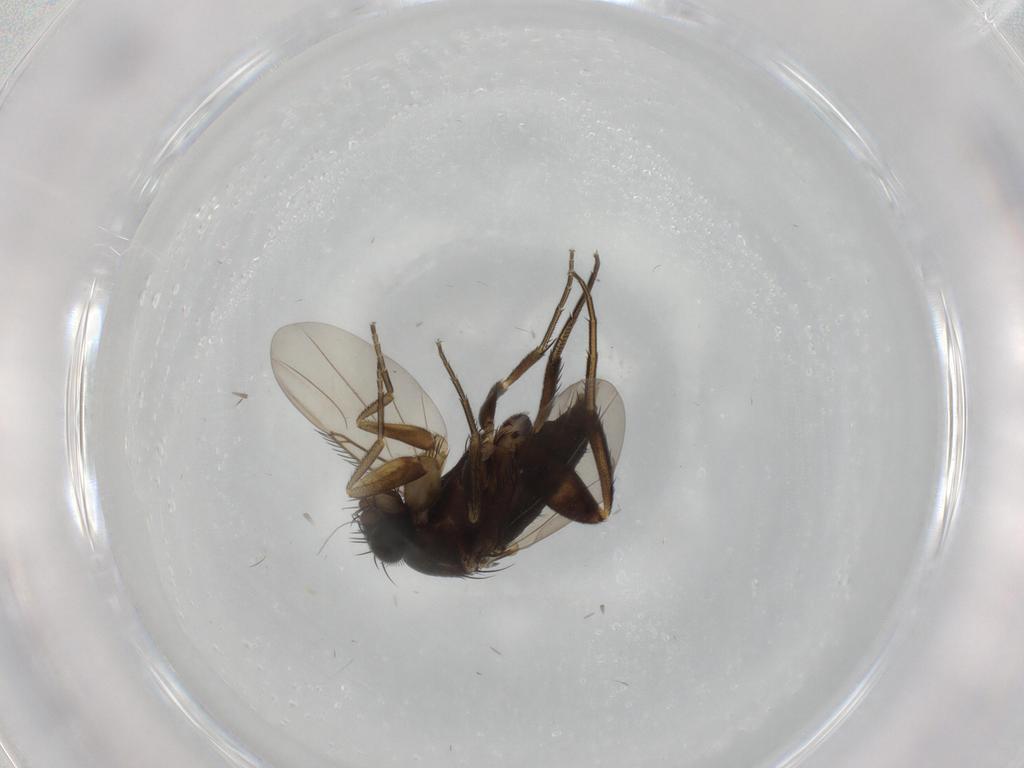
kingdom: Animalia
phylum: Arthropoda
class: Insecta
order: Diptera
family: Phoridae
